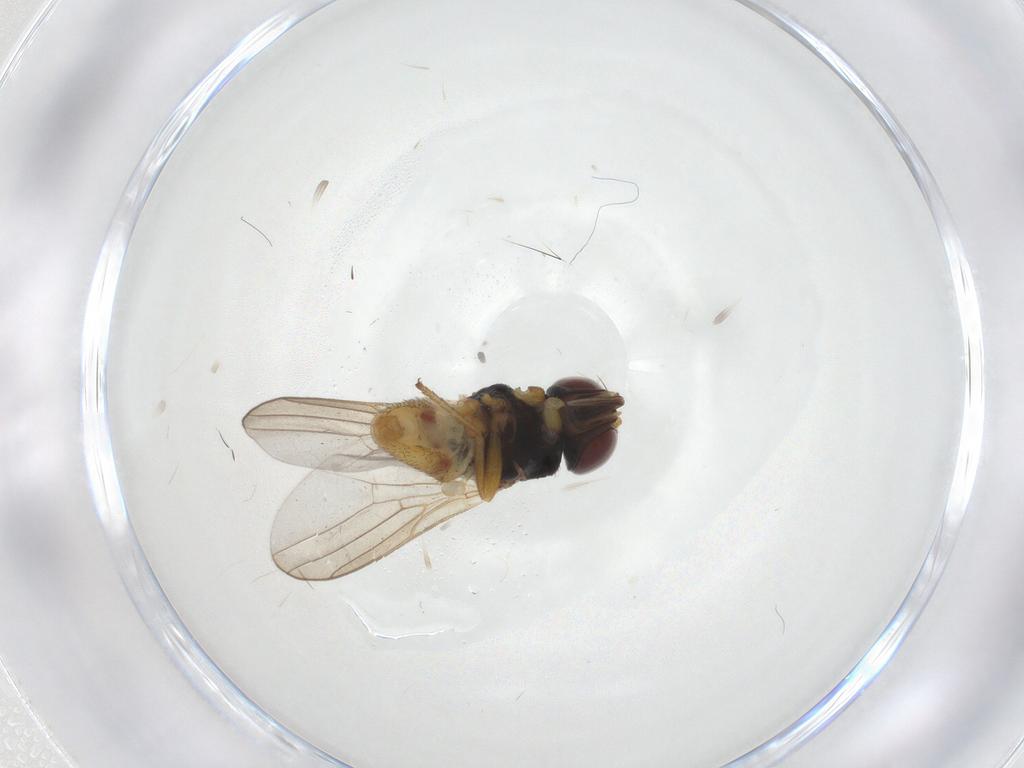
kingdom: Animalia
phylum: Arthropoda
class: Insecta
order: Diptera
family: Chloropidae
